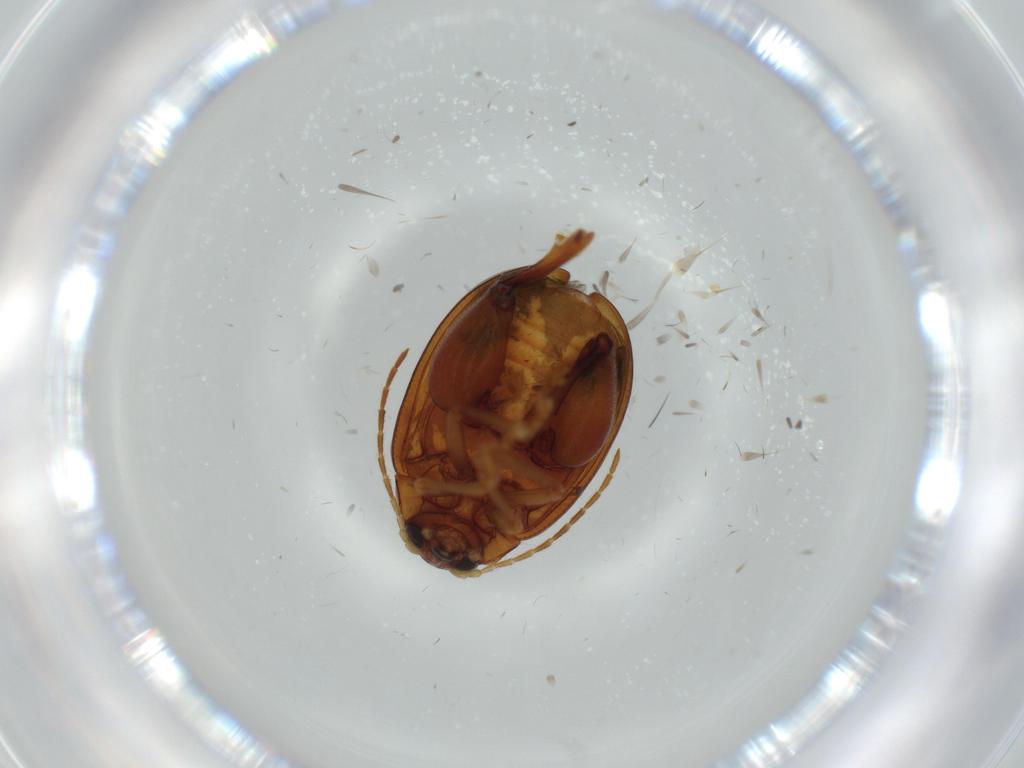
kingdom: Animalia
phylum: Arthropoda
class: Insecta
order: Coleoptera
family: Chrysomelidae
